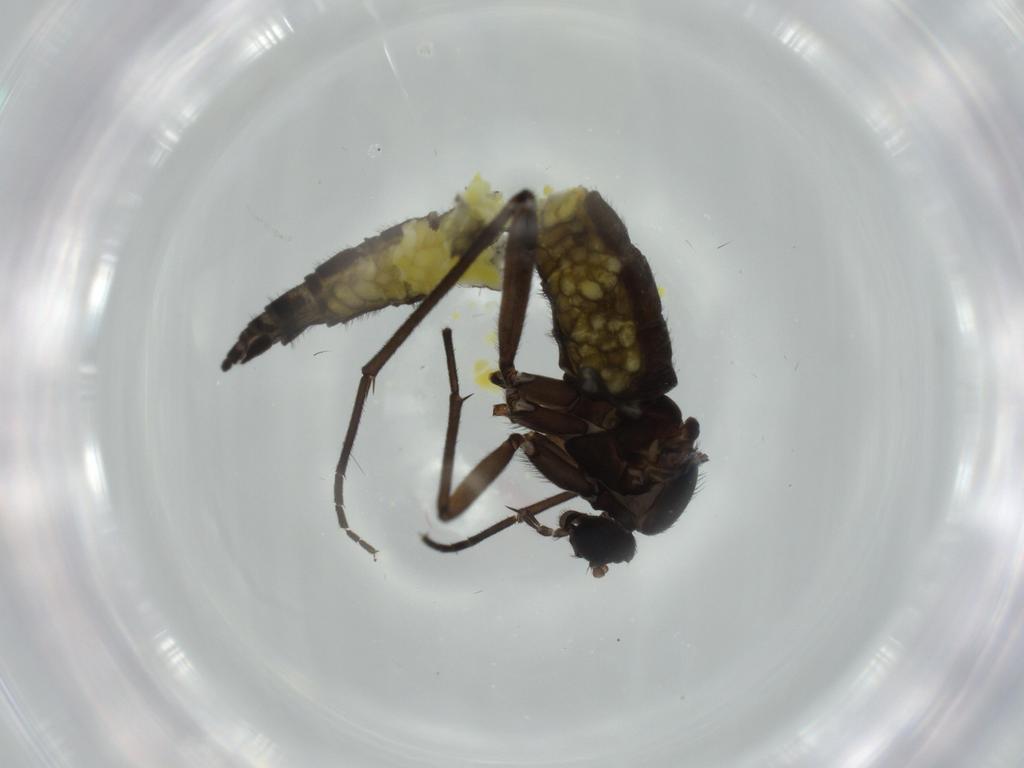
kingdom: Animalia
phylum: Arthropoda
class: Insecta
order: Diptera
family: Sciaridae
